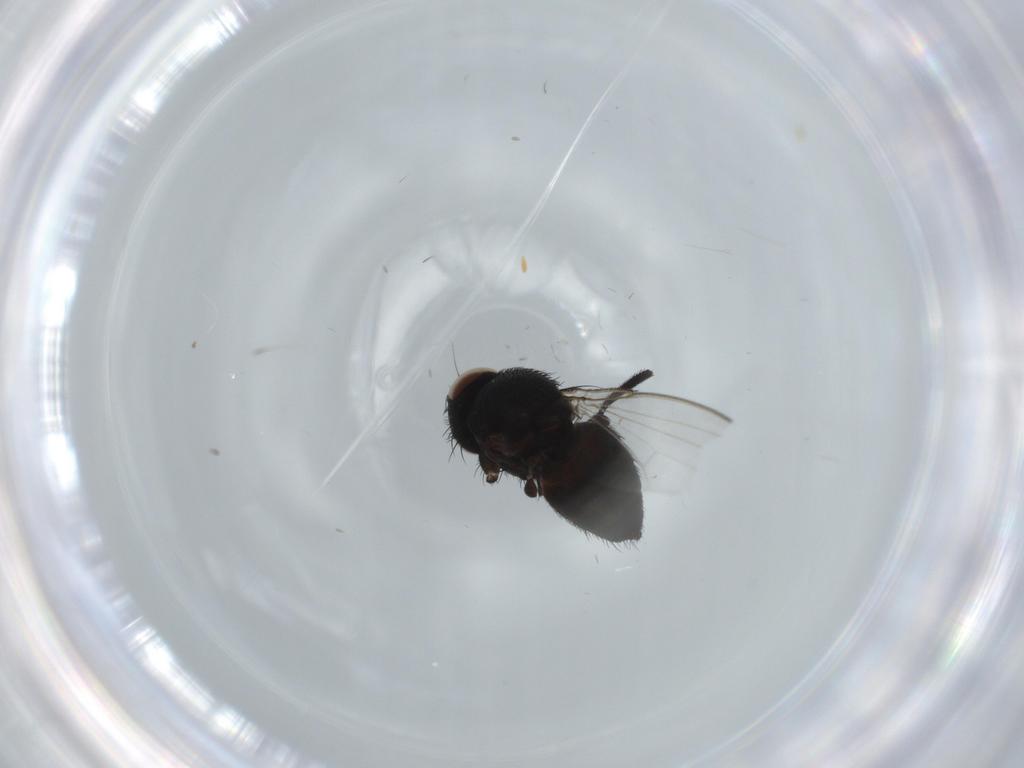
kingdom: Animalia
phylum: Arthropoda
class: Insecta
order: Diptera
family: Chironomidae
